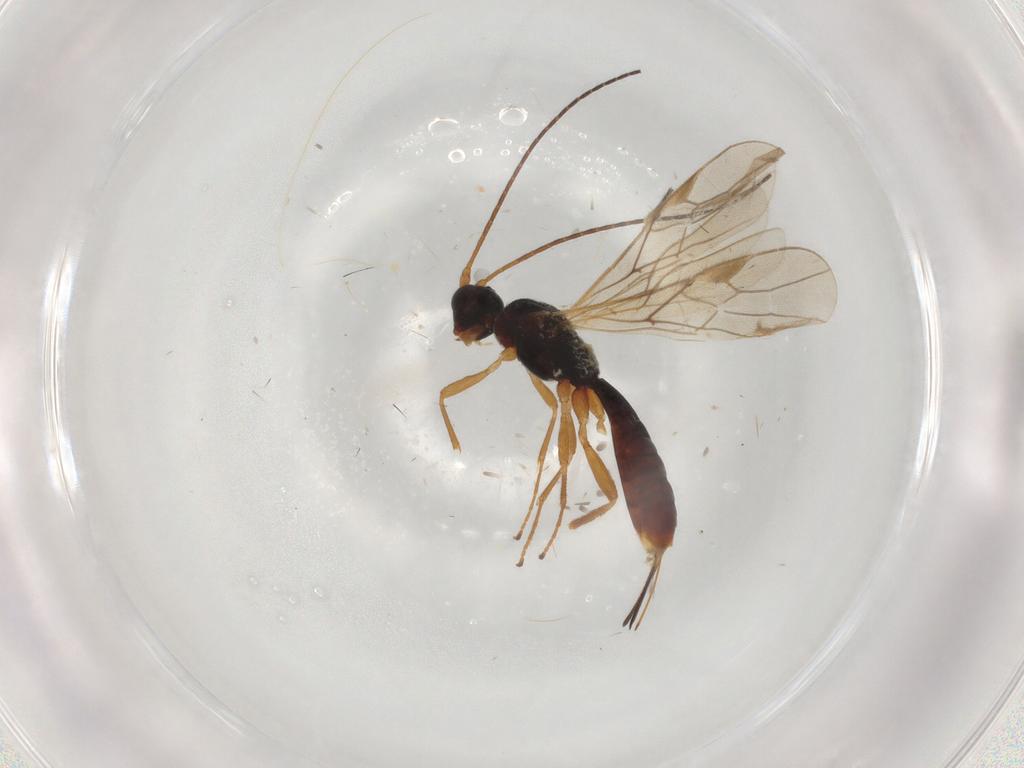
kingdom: Animalia
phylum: Arthropoda
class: Insecta
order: Hymenoptera
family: Braconidae
